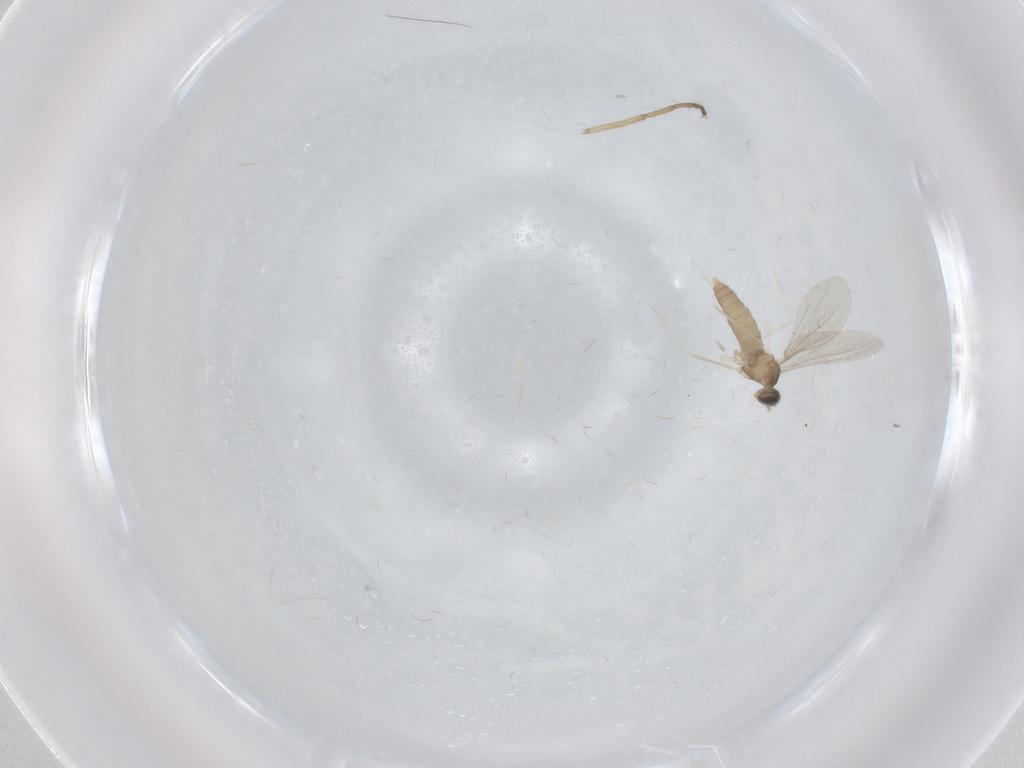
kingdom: Animalia
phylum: Arthropoda
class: Insecta
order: Diptera
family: Cecidomyiidae
